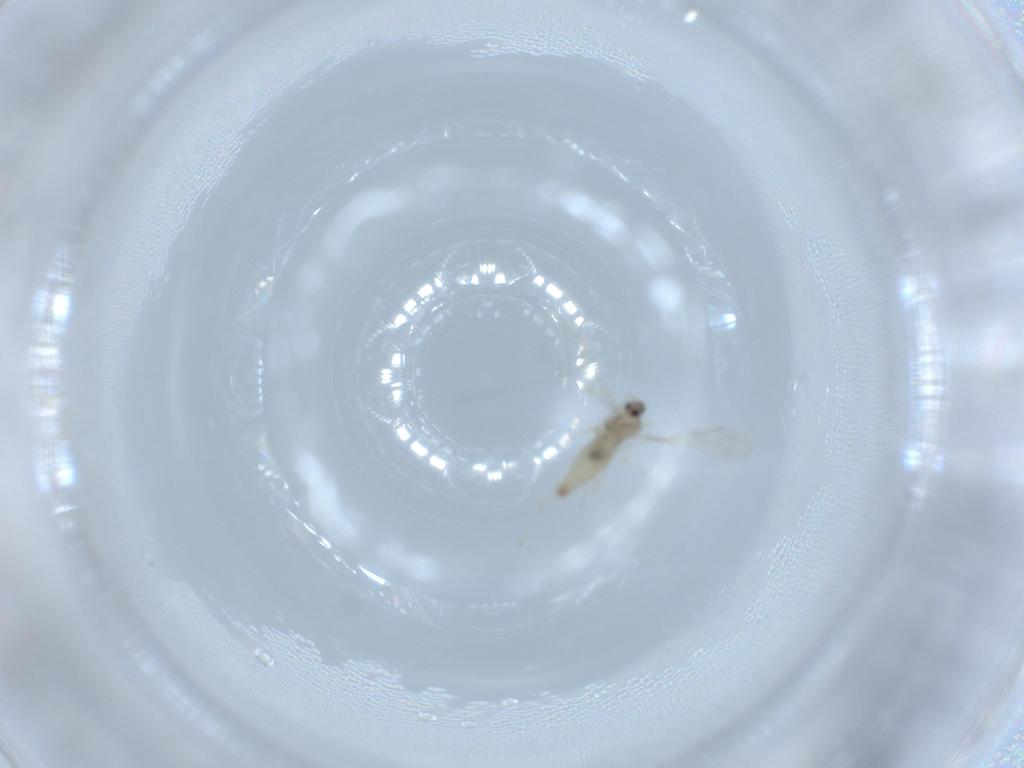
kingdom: Animalia
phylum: Arthropoda
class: Insecta
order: Diptera
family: Cecidomyiidae
